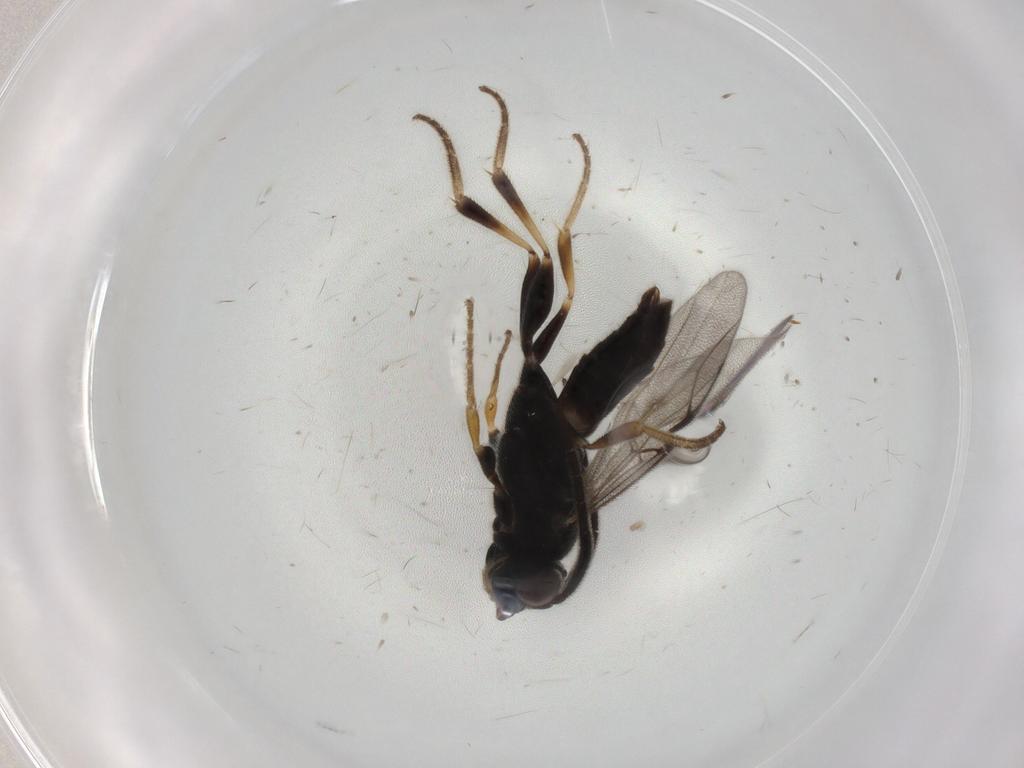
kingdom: Animalia
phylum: Arthropoda
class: Insecta
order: Hymenoptera
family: Dryinidae
